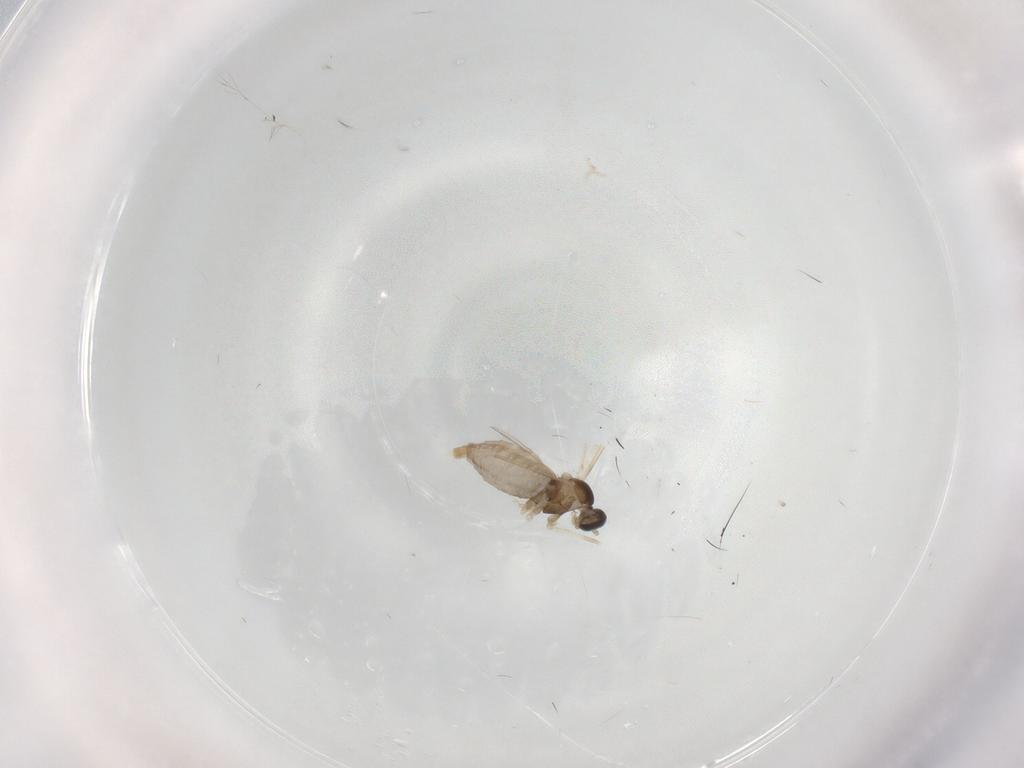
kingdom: Animalia
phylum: Arthropoda
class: Insecta
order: Diptera
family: Cecidomyiidae
